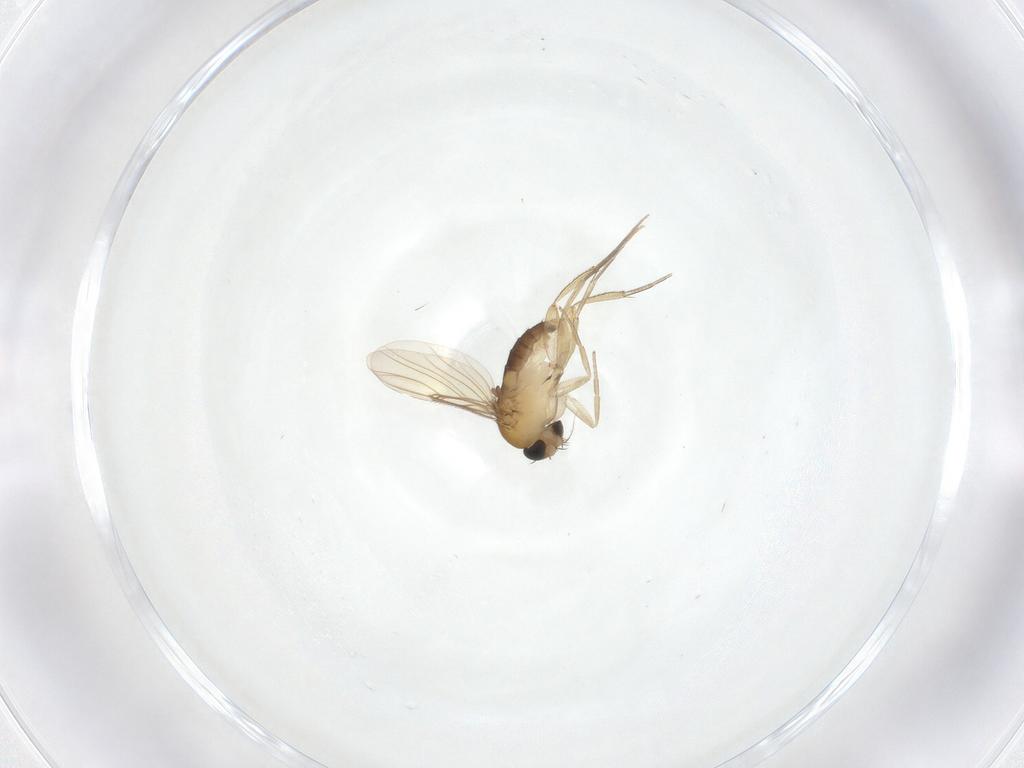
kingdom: Animalia
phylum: Arthropoda
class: Insecta
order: Diptera
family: Phoridae
